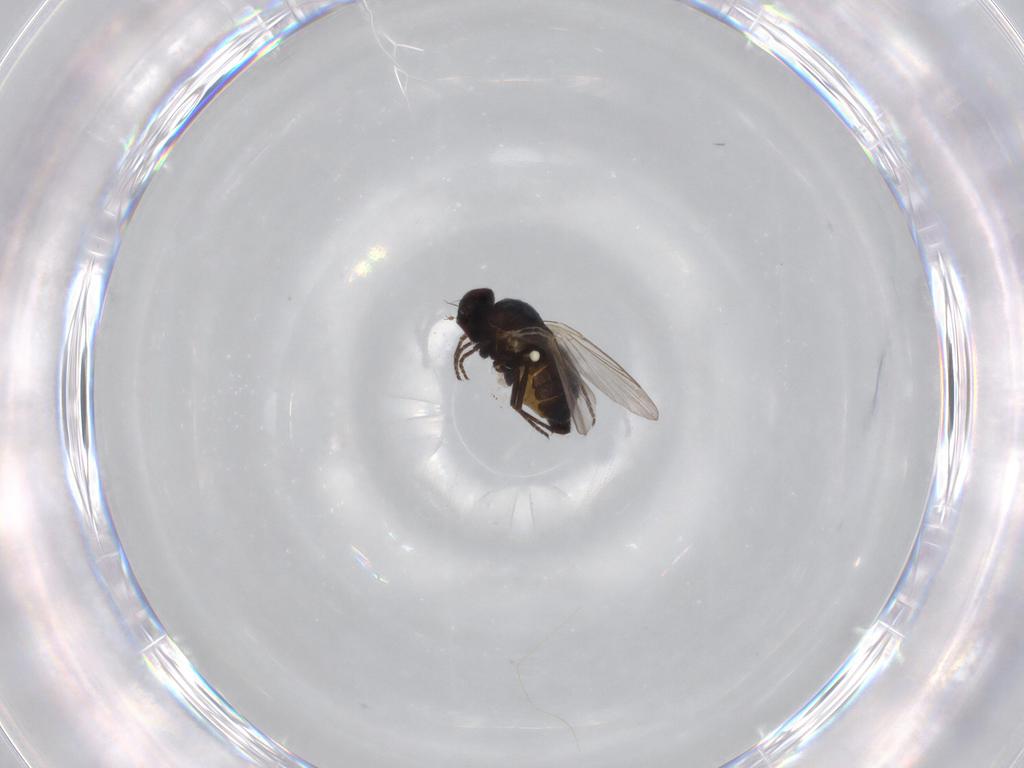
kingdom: Animalia
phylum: Arthropoda
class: Insecta
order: Diptera
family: Chironomidae
